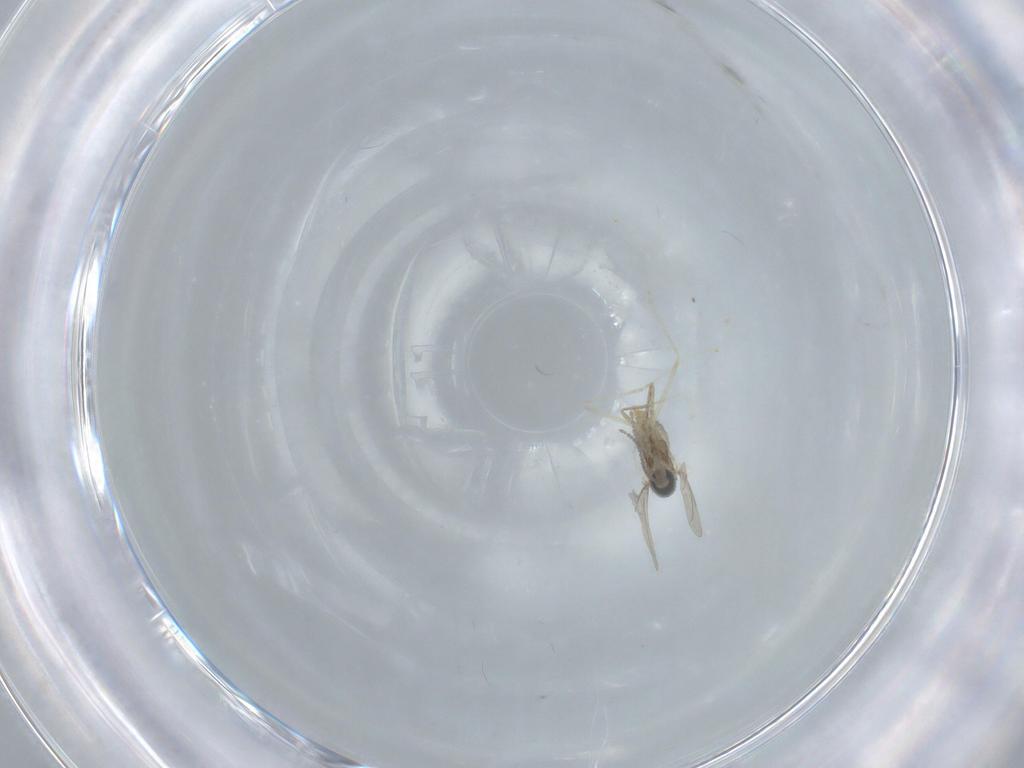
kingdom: Animalia
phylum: Arthropoda
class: Insecta
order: Diptera
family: Cecidomyiidae
